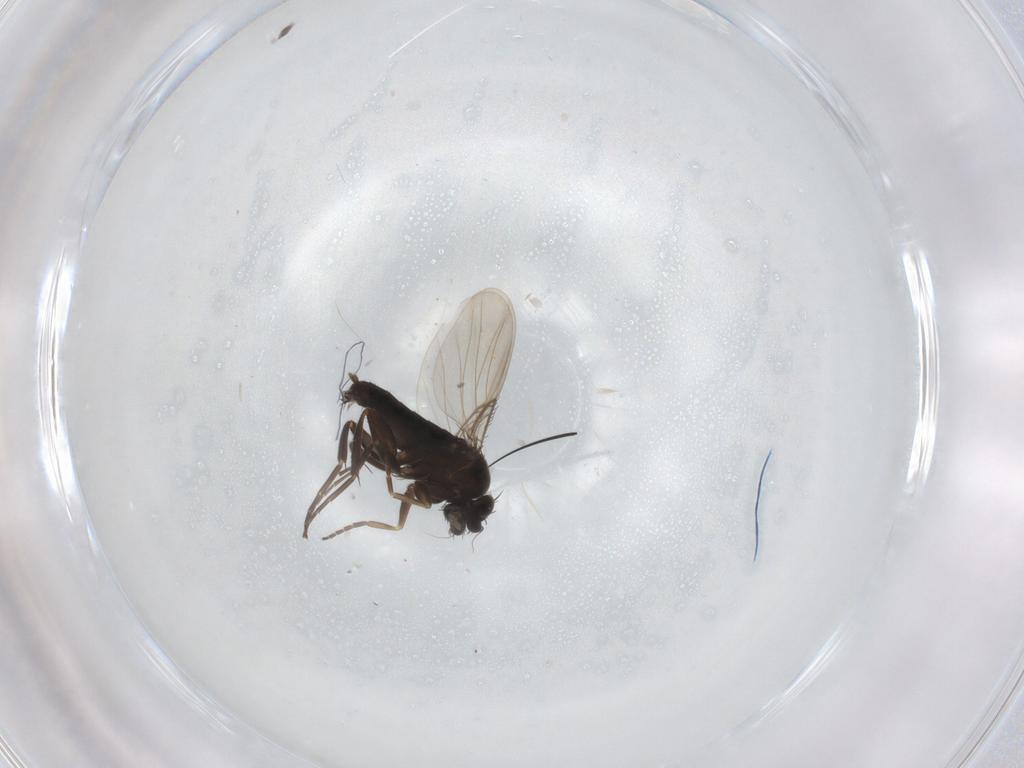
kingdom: Animalia
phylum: Arthropoda
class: Insecta
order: Diptera
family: Phoridae
